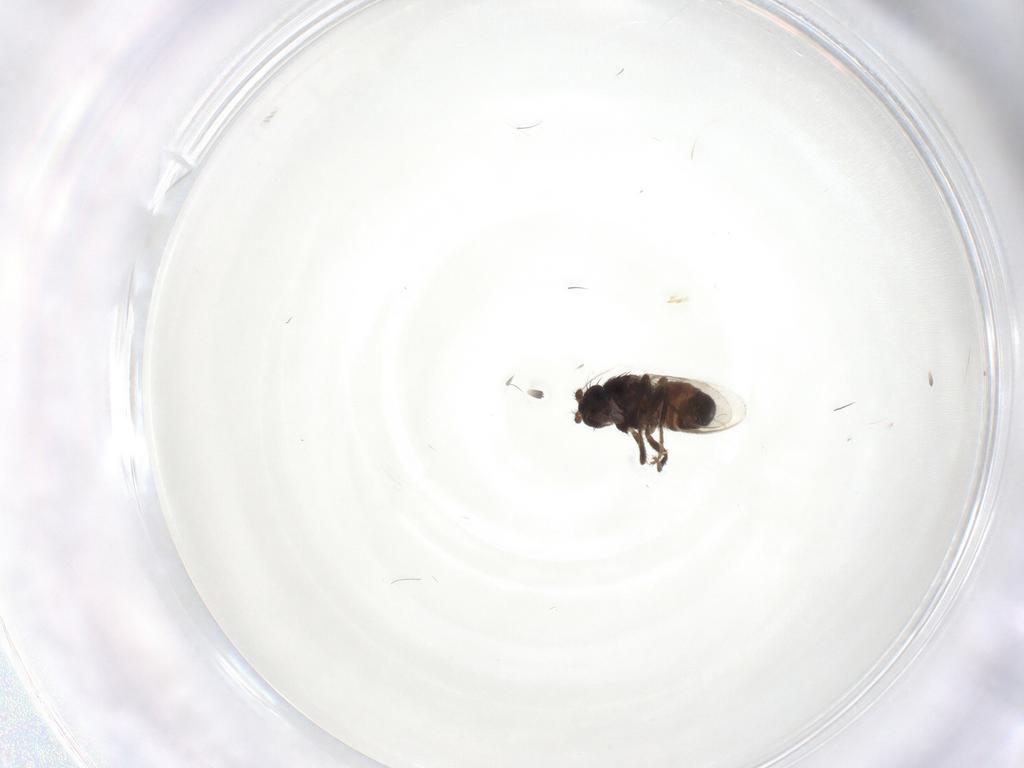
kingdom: Animalia
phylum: Arthropoda
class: Insecta
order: Diptera
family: Sphaeroceridae
